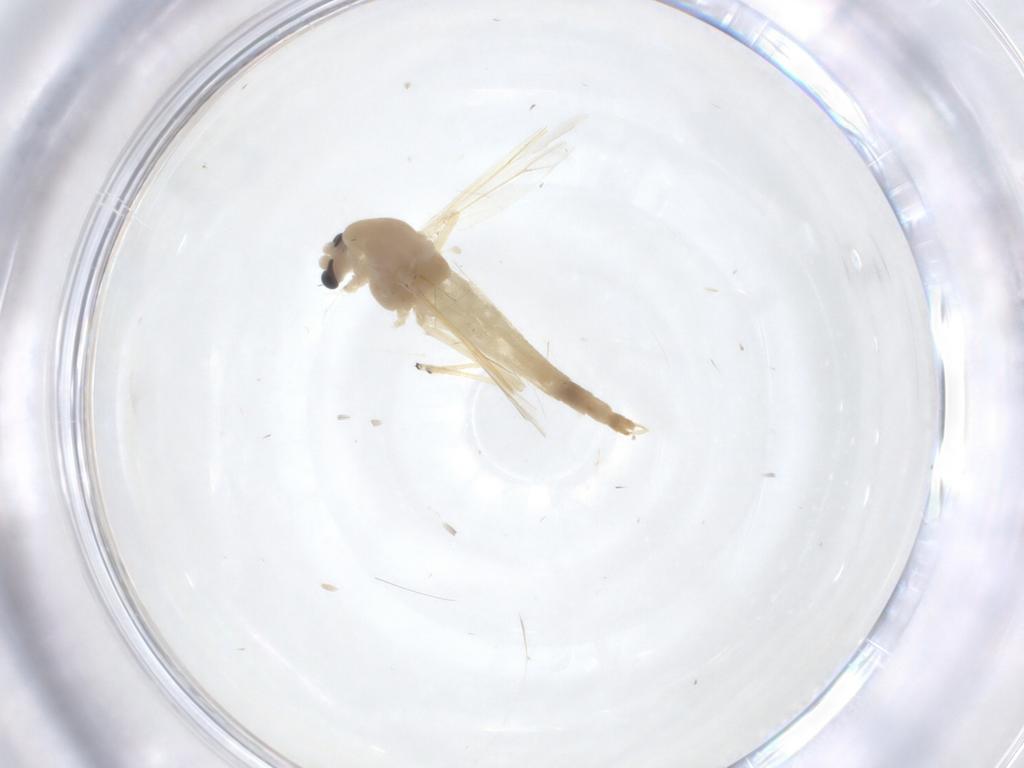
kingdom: Animalia
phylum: Arthropoda
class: Insecta
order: Diptera
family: Chironomidae
